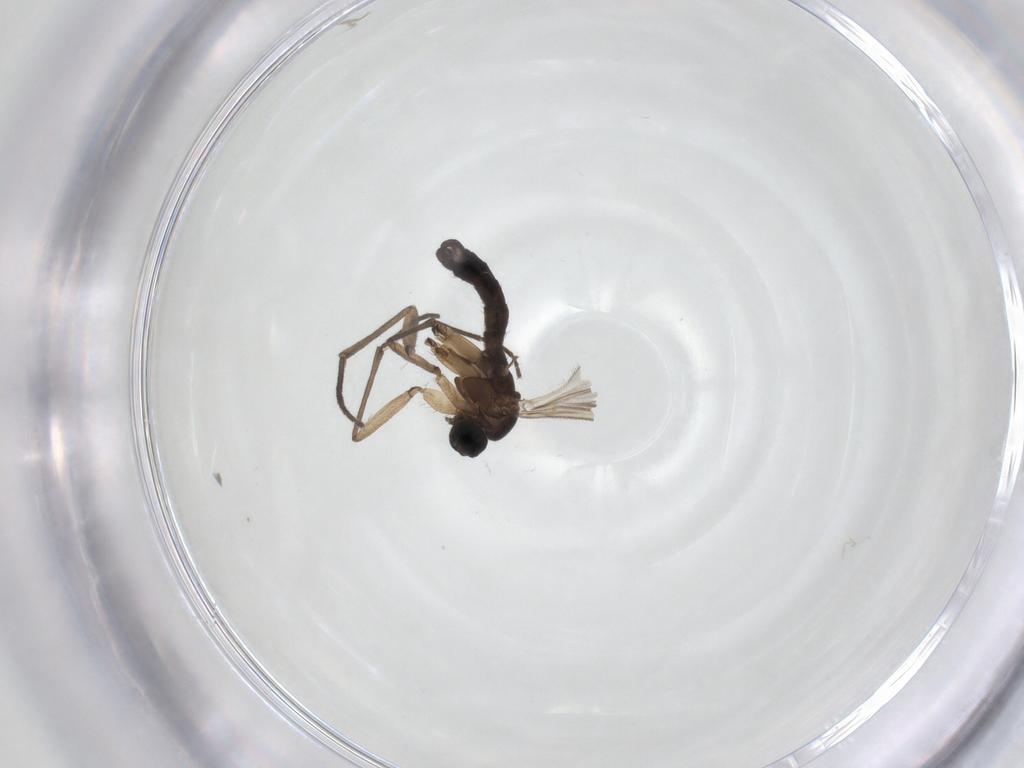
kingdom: Animalia
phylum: Arthropoda
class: Insecta
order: Diptera
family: Sciaridae
